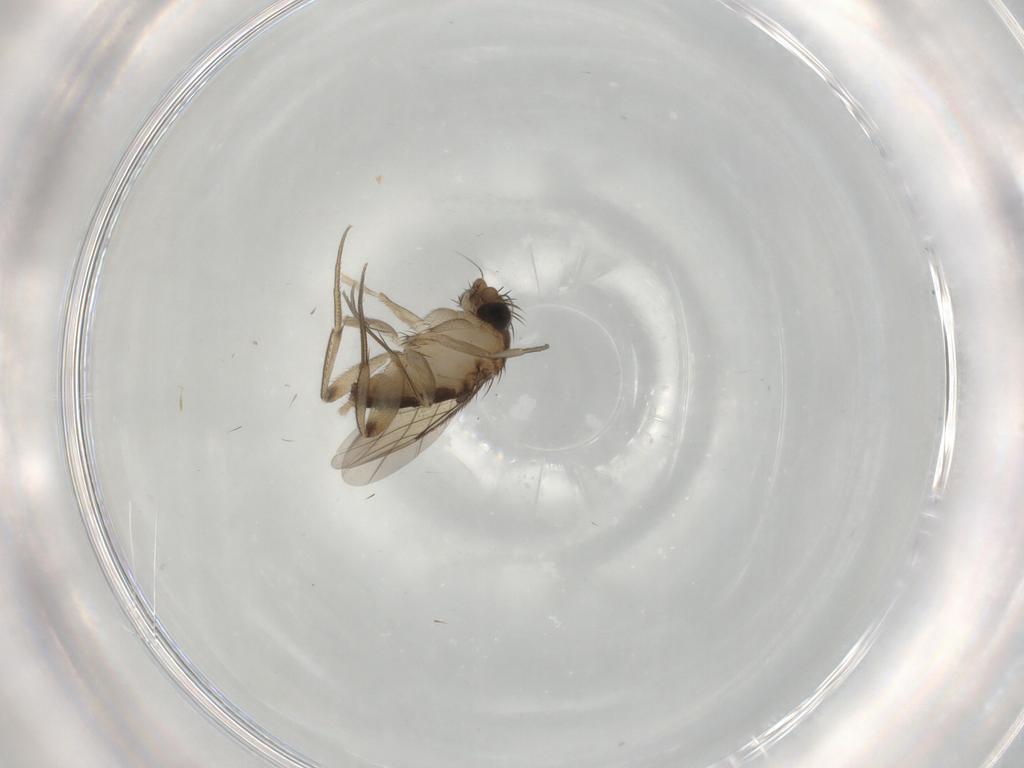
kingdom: Animalia
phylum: Arthropoda
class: Insecta
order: Diptera
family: Phoridae
